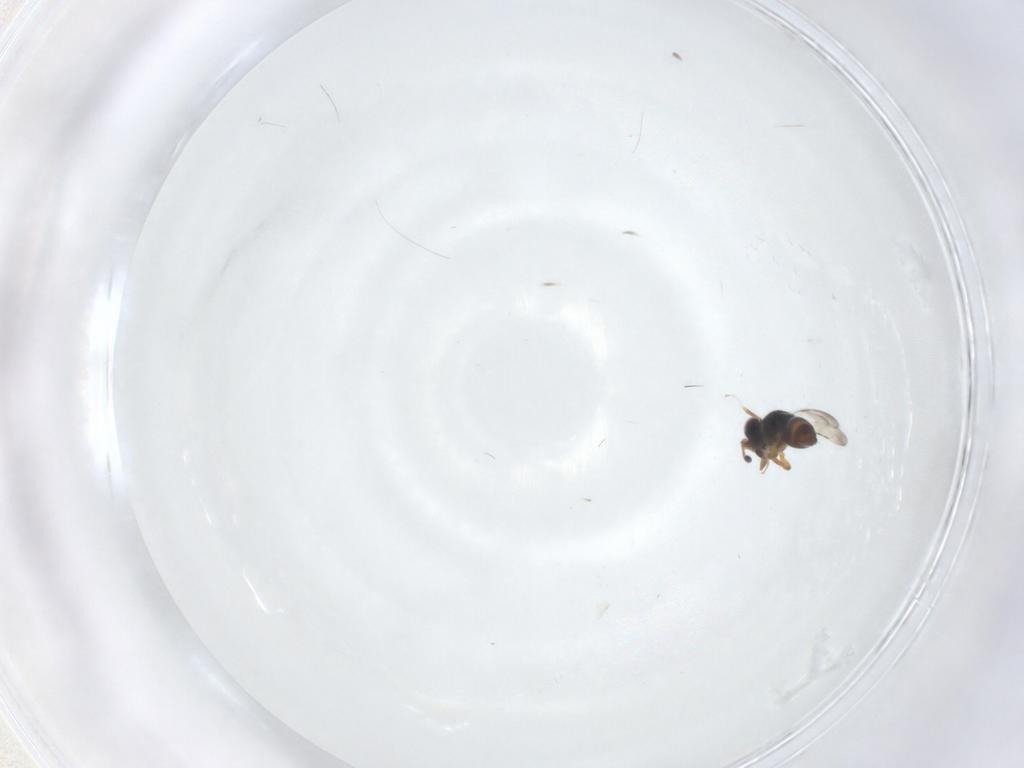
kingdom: Animalia
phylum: Arthropoda
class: Insecta
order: Hymenoptera
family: Ceraphronidae
